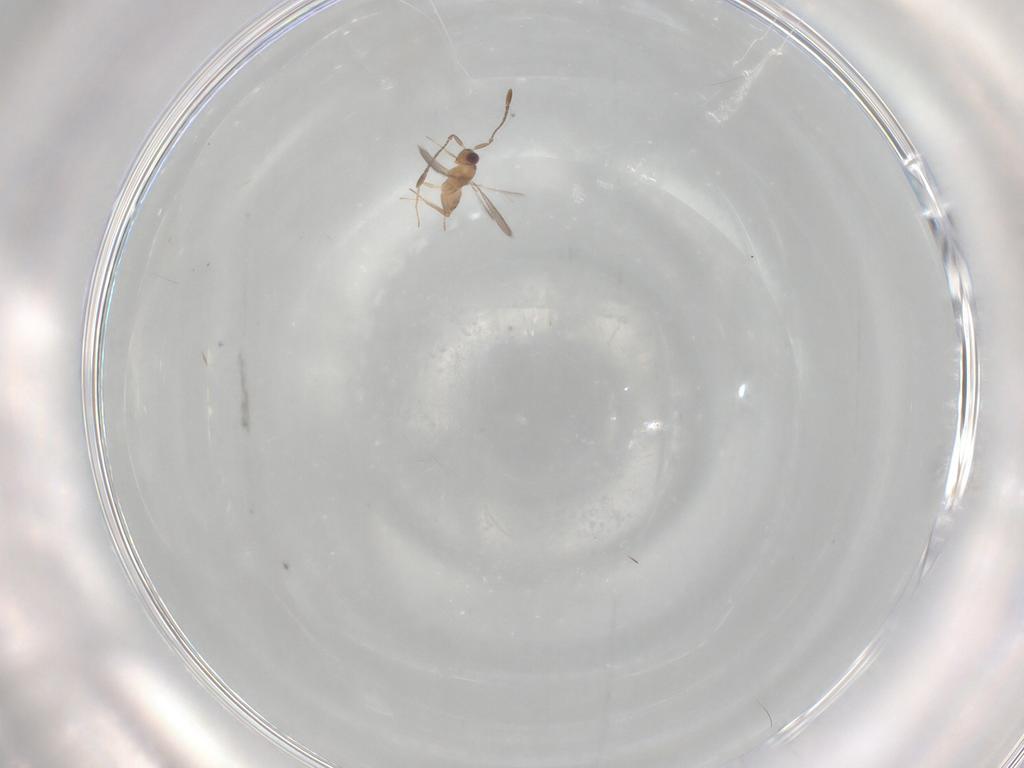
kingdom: Animalia
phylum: Arthropoda
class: Insecta
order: Hymenoptera
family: Mymaridae
